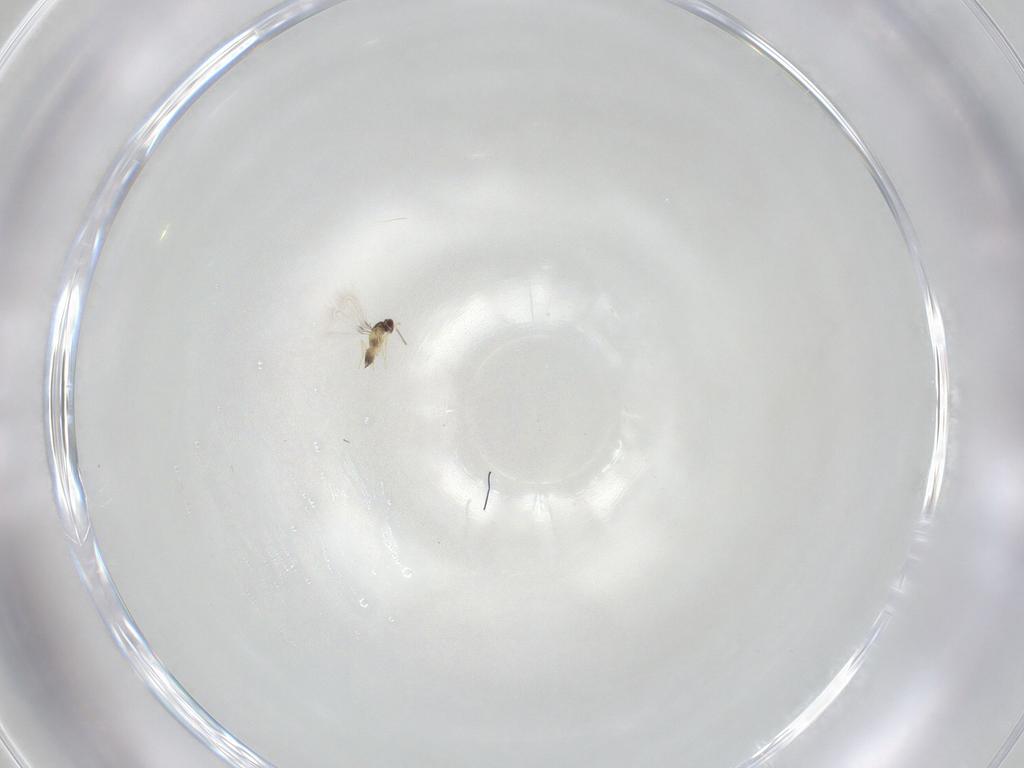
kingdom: Animalia
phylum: Arthropoda
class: Insecta
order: Hymenoptera
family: Mymaridae
